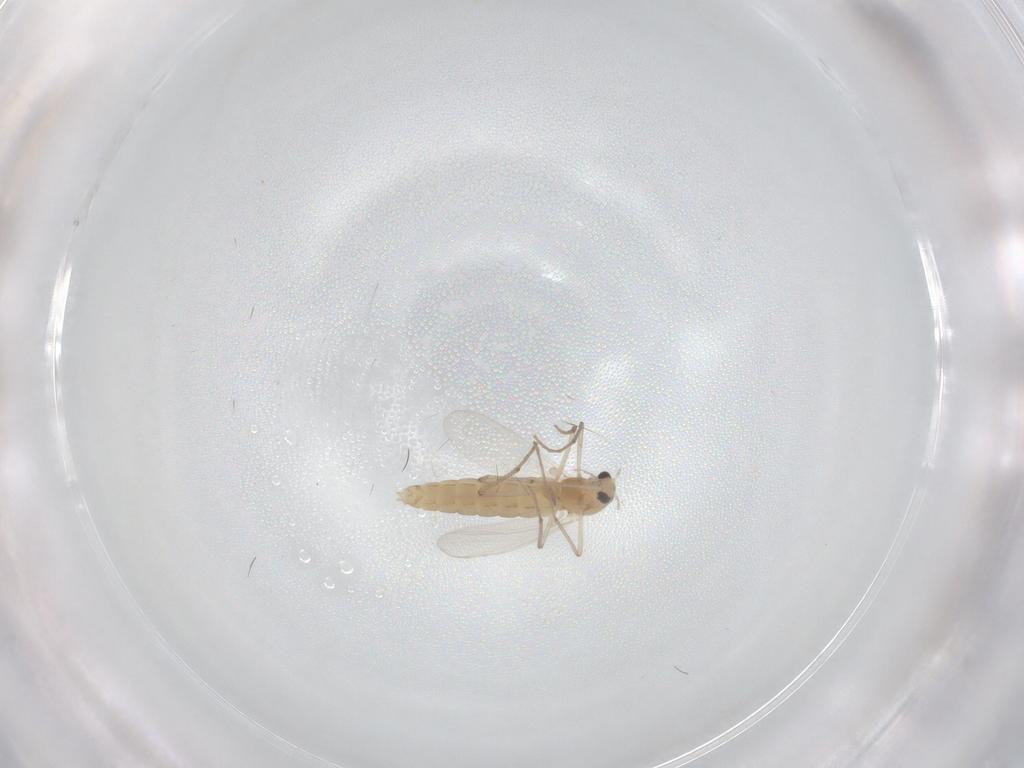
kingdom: Animalia
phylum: Arthropoda
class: Insecta
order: Diptera
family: Chironomidae
